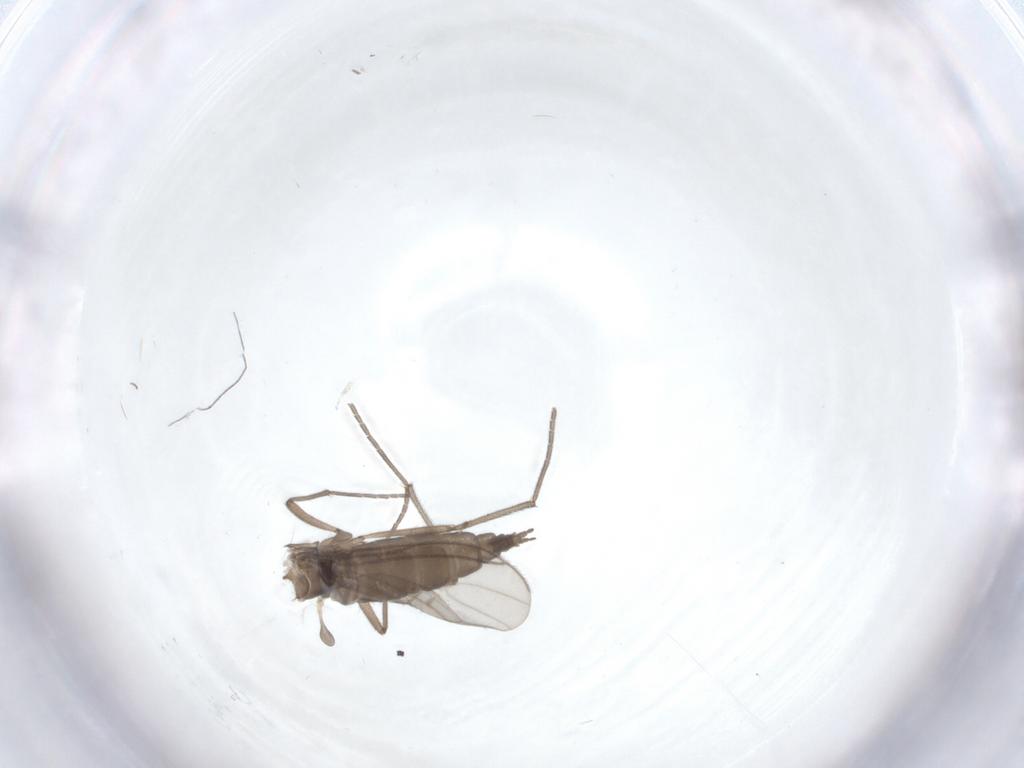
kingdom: Animalia
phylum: Arthropoda
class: Insecta
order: Diptera
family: Sciaridae
